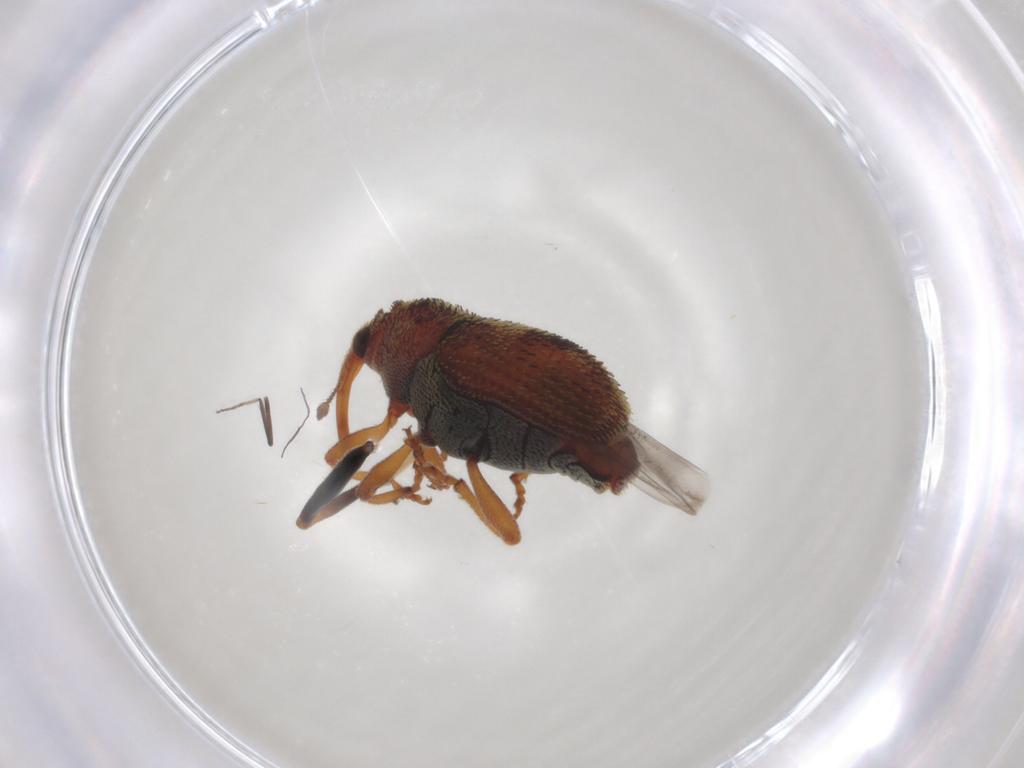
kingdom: Animalia
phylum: Arthropoda
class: Insecta
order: Coleoptera
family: Curculionidae
